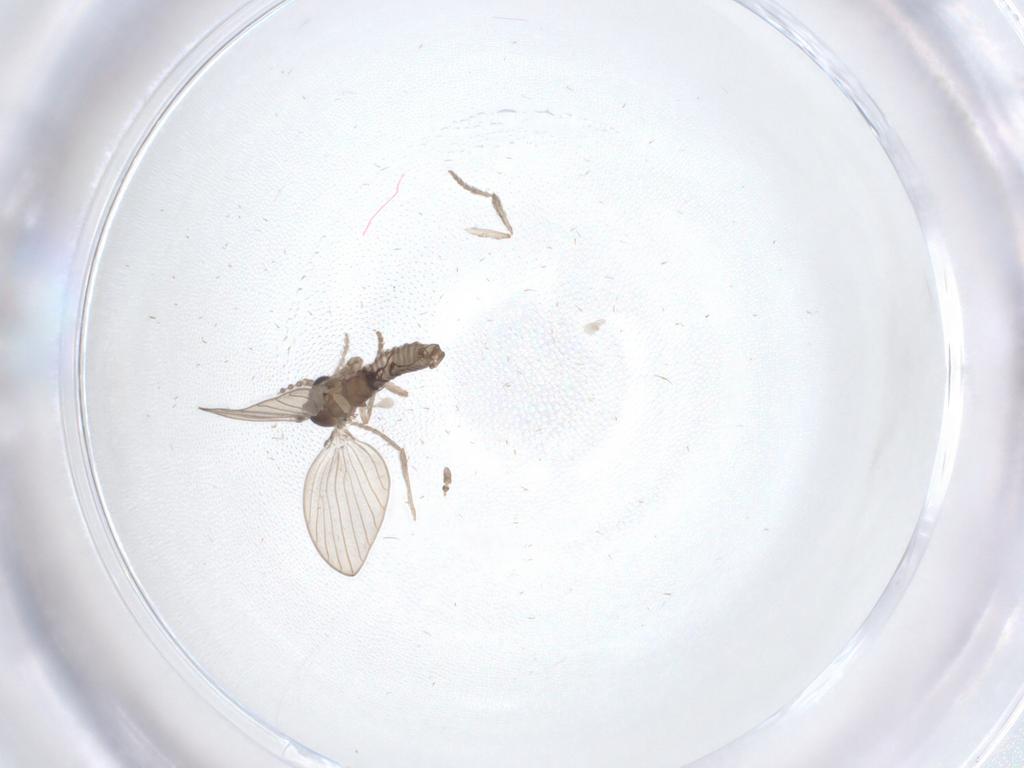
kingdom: Animalia
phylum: Arthropoda
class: Insecta
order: Diptera
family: Psychodidae
